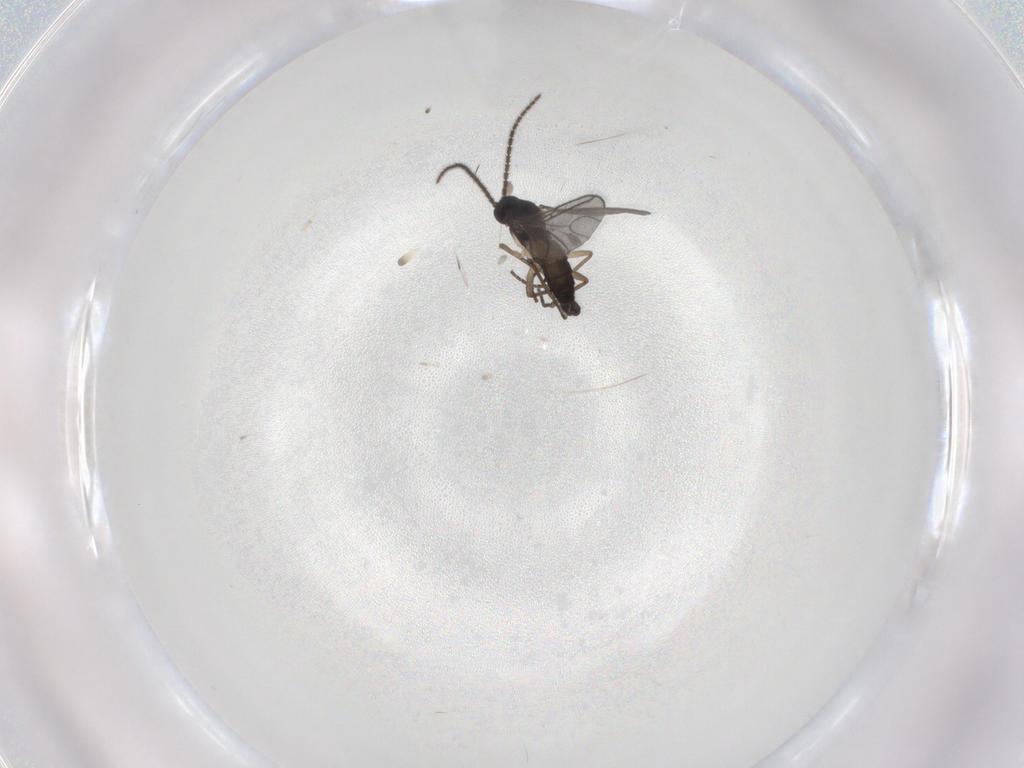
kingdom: Animalia
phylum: Arthropoda
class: Insecta
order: Diptera
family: Sciaridae
